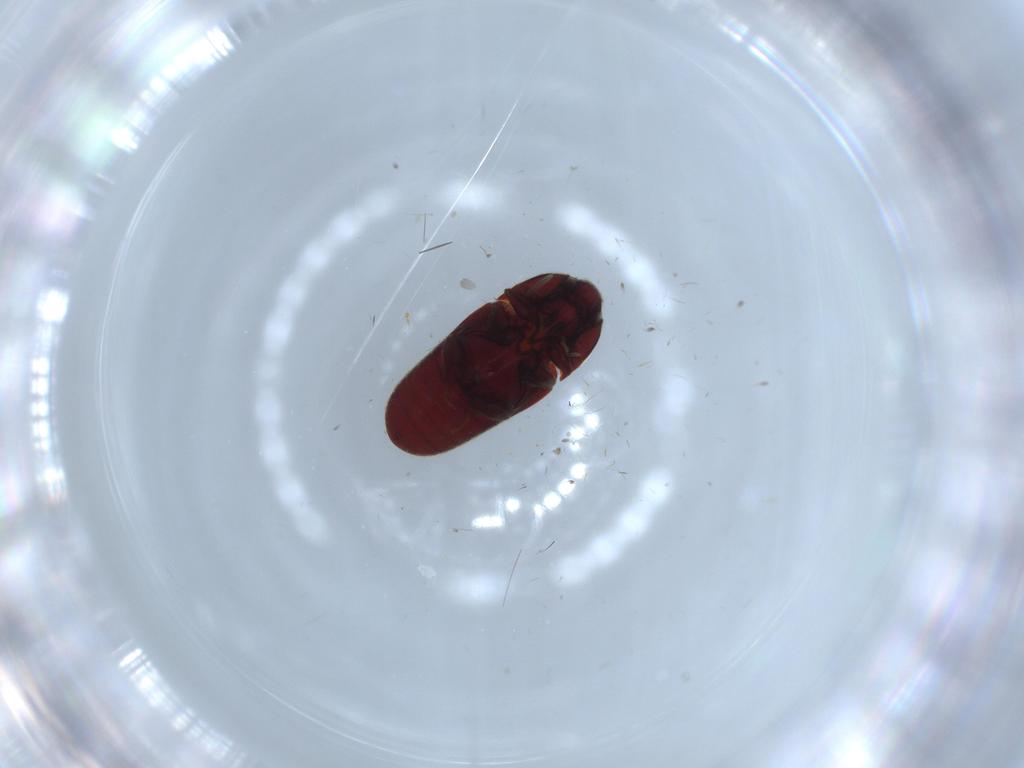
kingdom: Animalia
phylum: Arthropoda
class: Insecta
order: Coleoptera
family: Throscidae
